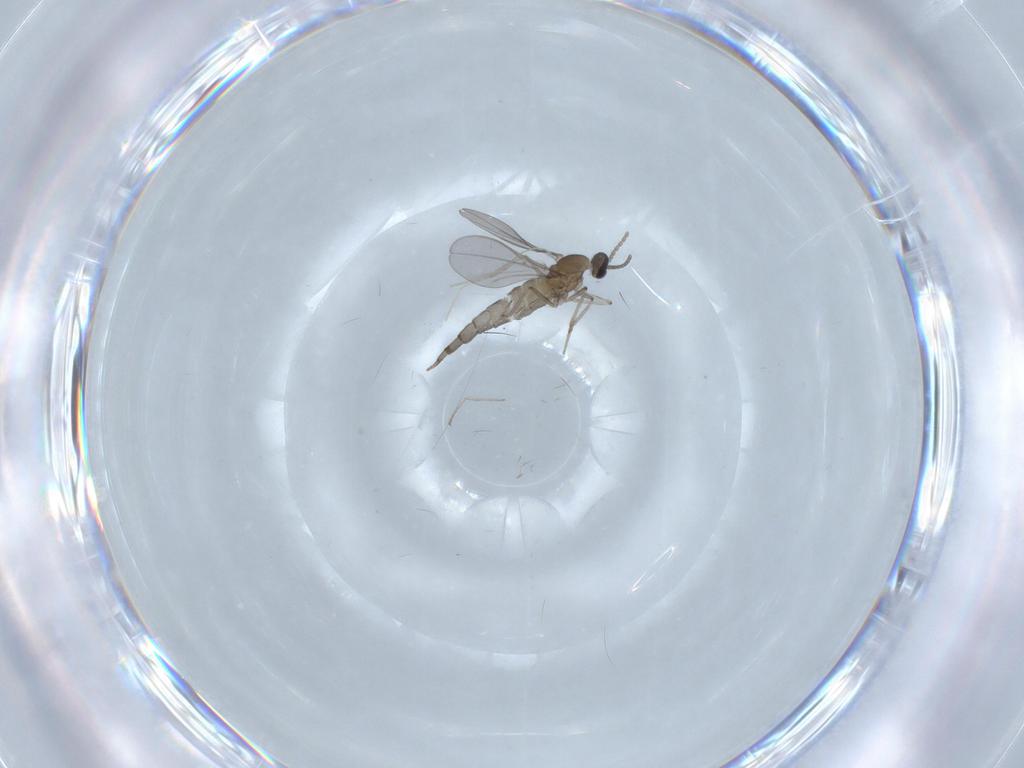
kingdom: Animalia
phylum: Arthropoda
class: Insecta
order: Diptera
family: Cecidomyiidae
